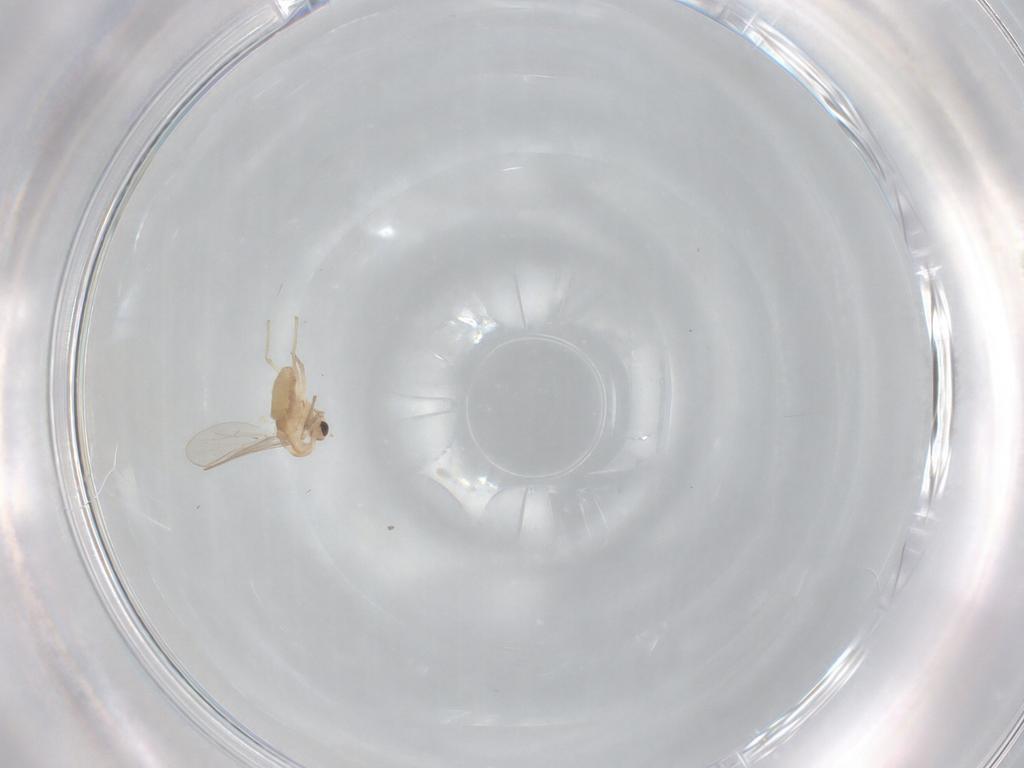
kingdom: Animalia
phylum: Arthropoda
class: Insecta
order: Diptera
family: Chironomidae
